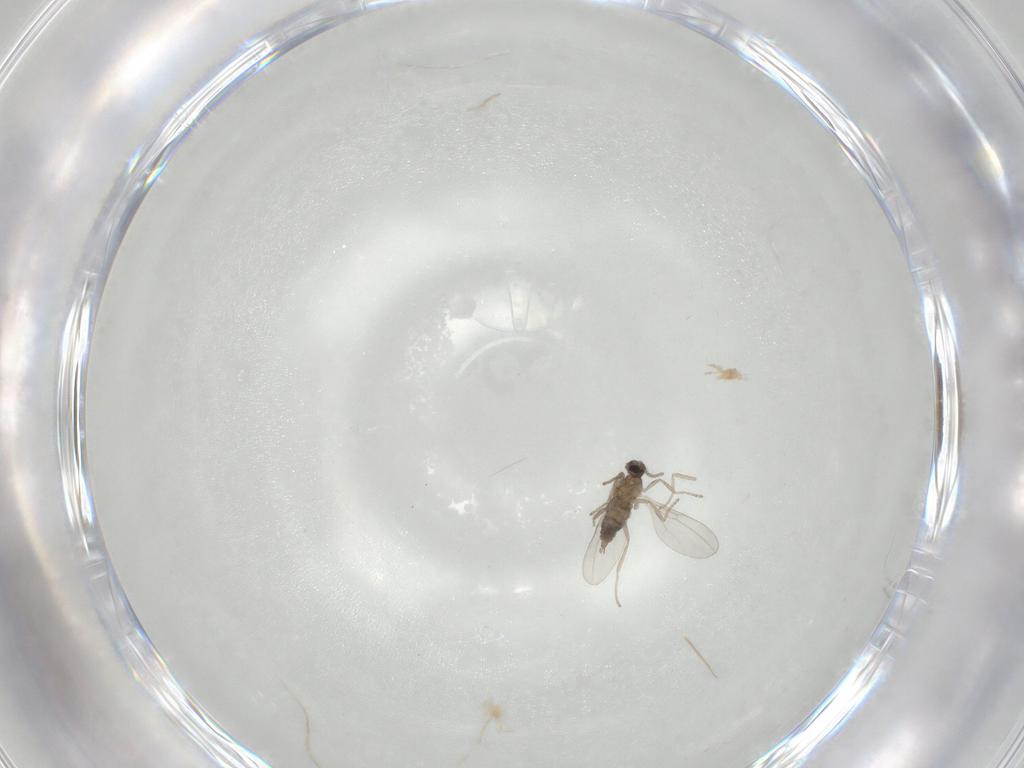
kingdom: Animalia
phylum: Arthropoda
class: Insecta
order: Diptera
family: Cecidomyiidae
